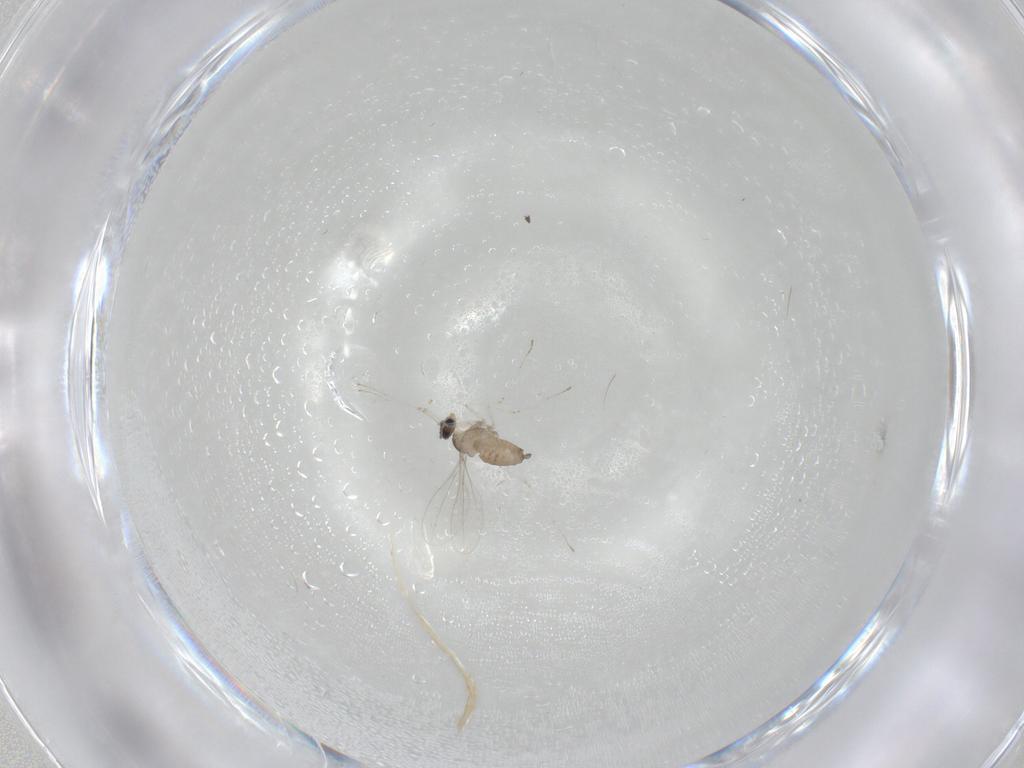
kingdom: Animalia
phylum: Arthropoda
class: Insecta
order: Diptera
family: Cecidomyiidae
